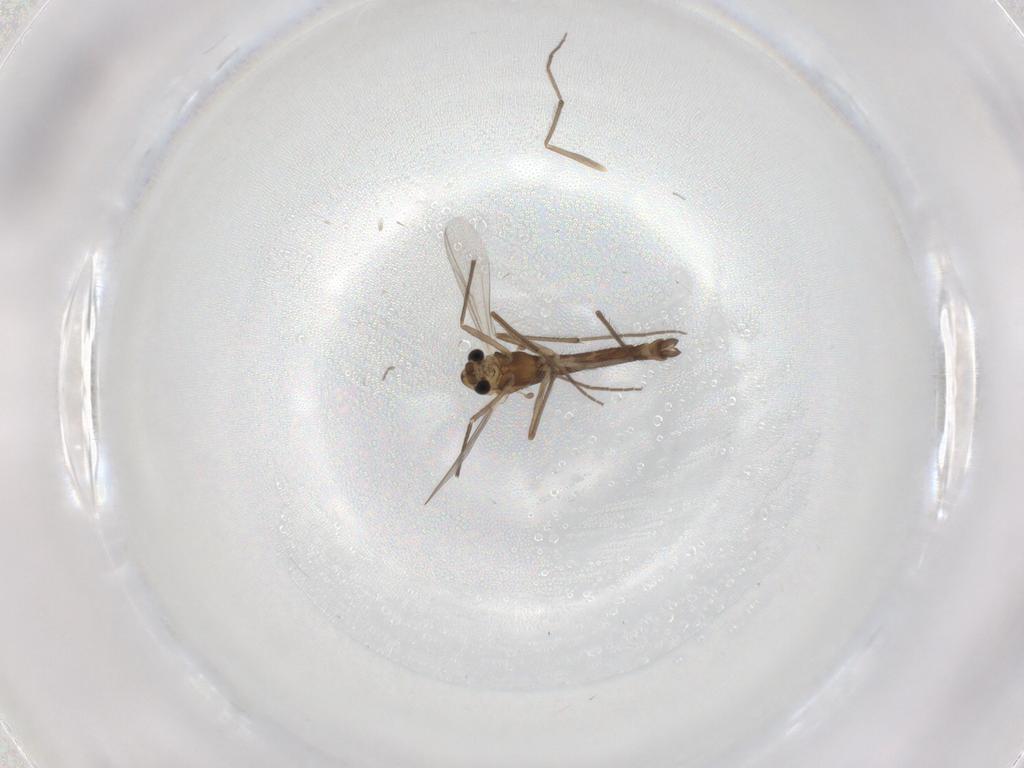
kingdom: Animalia
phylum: Arthropoda
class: Insecta
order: Diptera
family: Chironomidae
